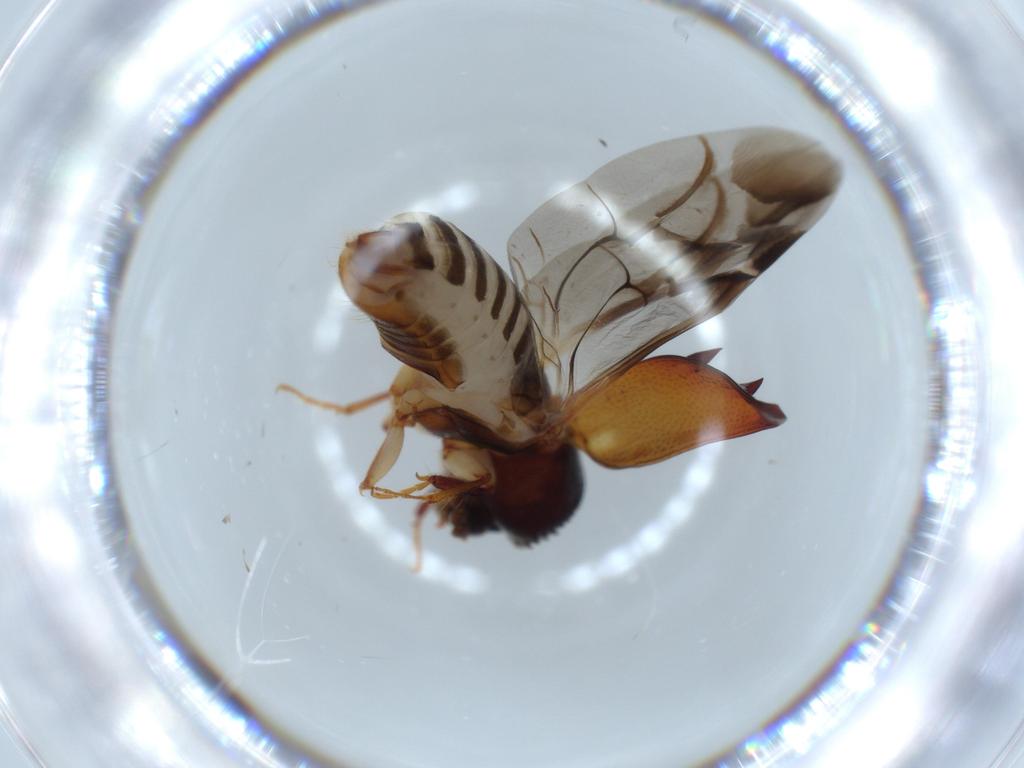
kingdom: Animalia
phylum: Arthropoda
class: Insecta
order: Coleoptera
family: Bostrichidae
